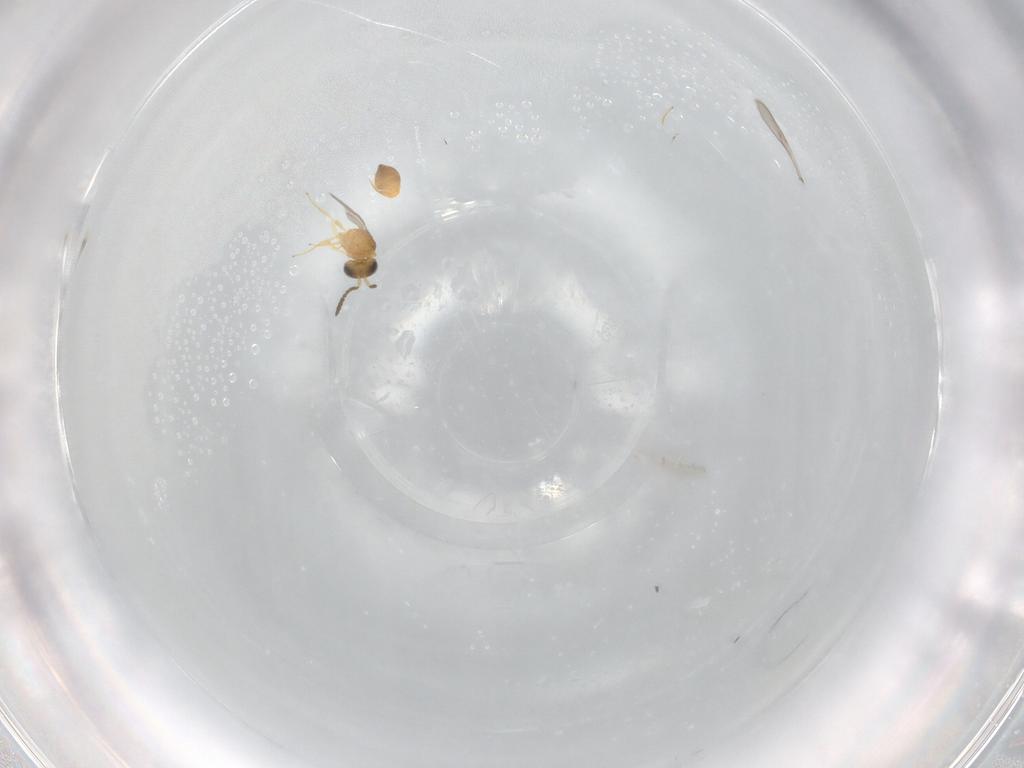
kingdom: Animalia
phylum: Arthropoda
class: Insecta
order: Hymenoptera
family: Scelionidae
